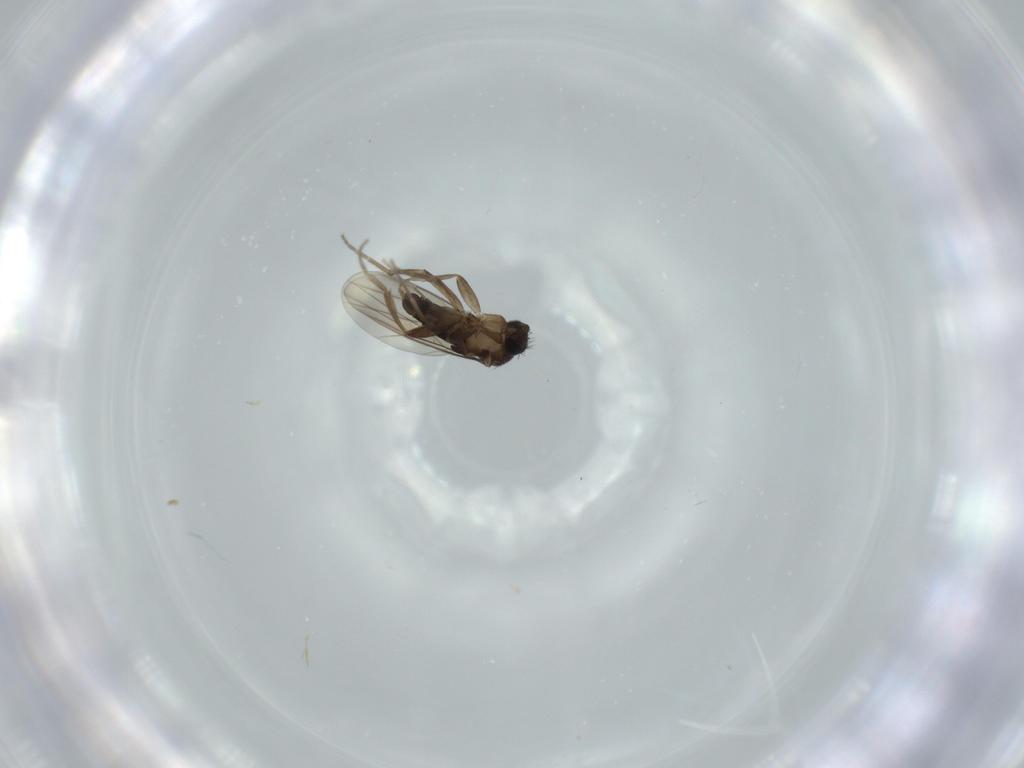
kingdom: Animalia
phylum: Arthropoda
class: Insecta
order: Diptera
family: Phoridae
